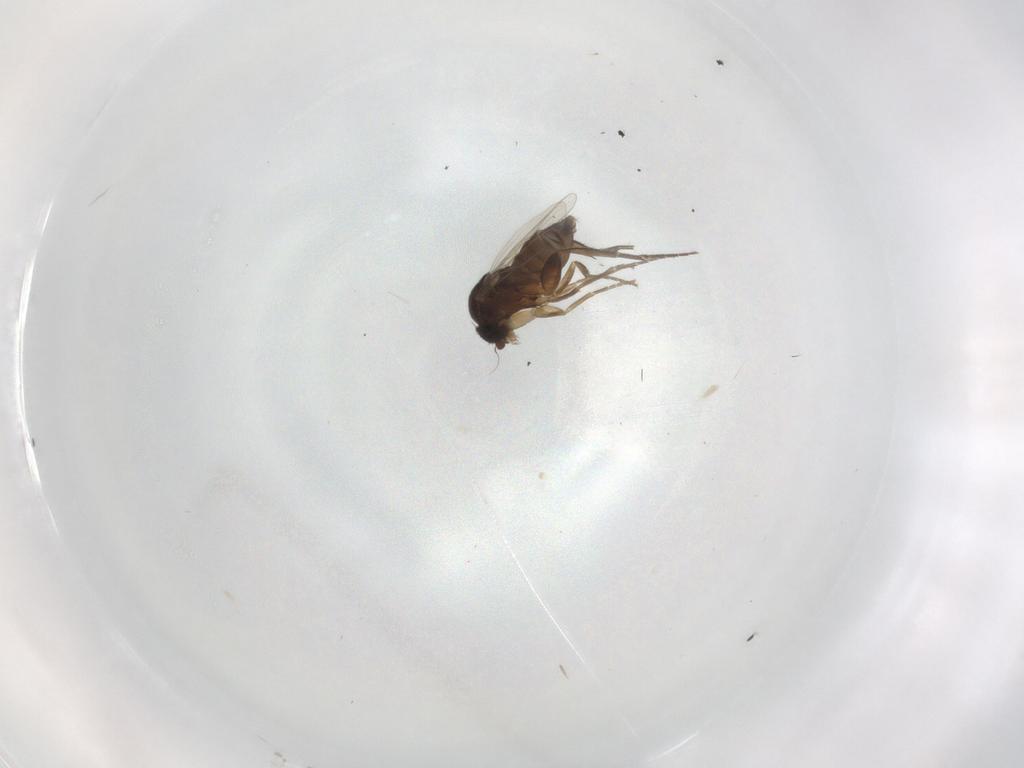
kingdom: Animalia
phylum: Arthropoda
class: Insecta
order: Diptera
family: Phoridae
